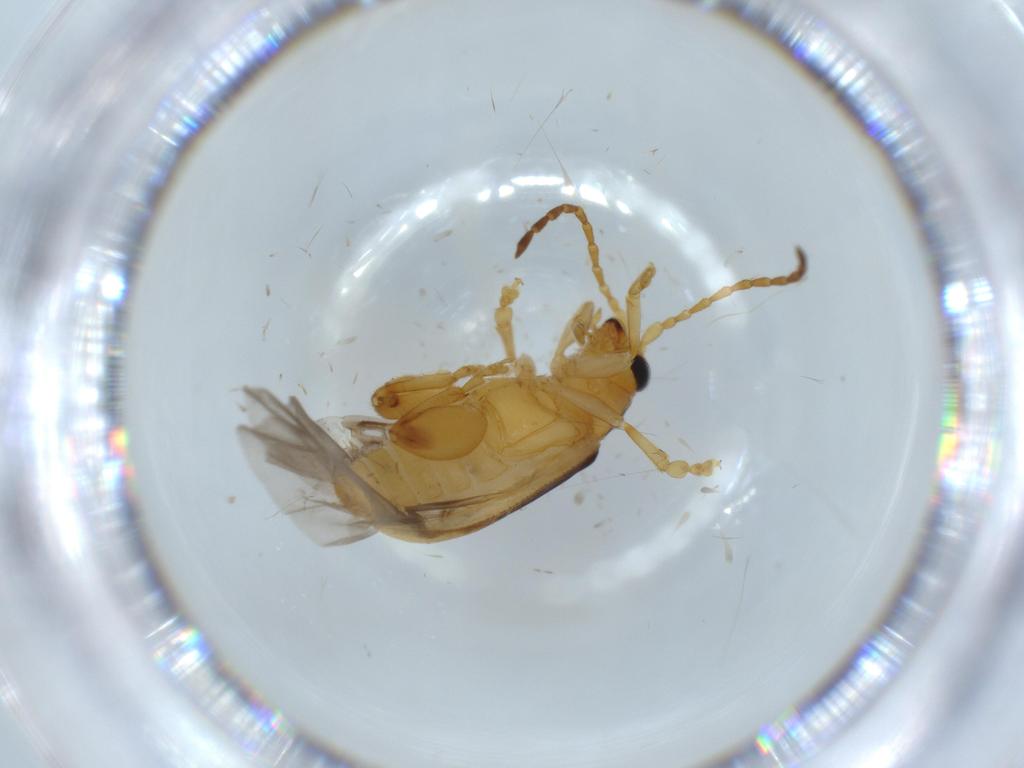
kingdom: Animalia
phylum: Arthropoda
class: Insecta
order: Coleoptera
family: Chrysomelidae
